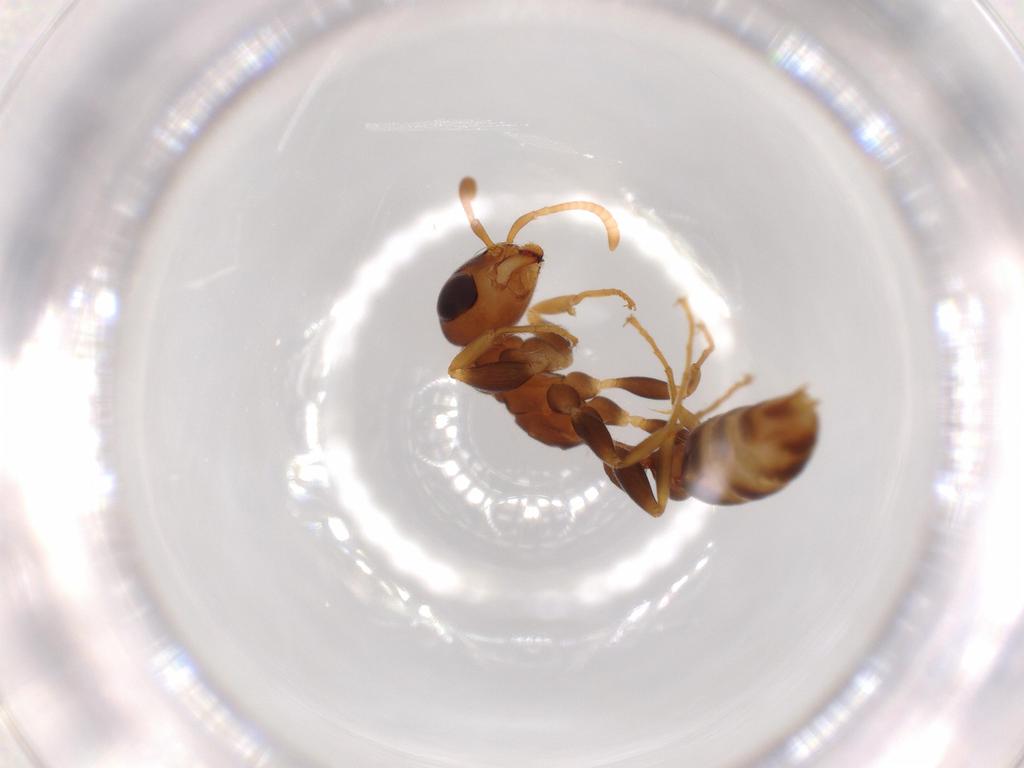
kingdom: Animalia
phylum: Arthropoda
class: Insecta
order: Hymenoptera
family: Formicidae
